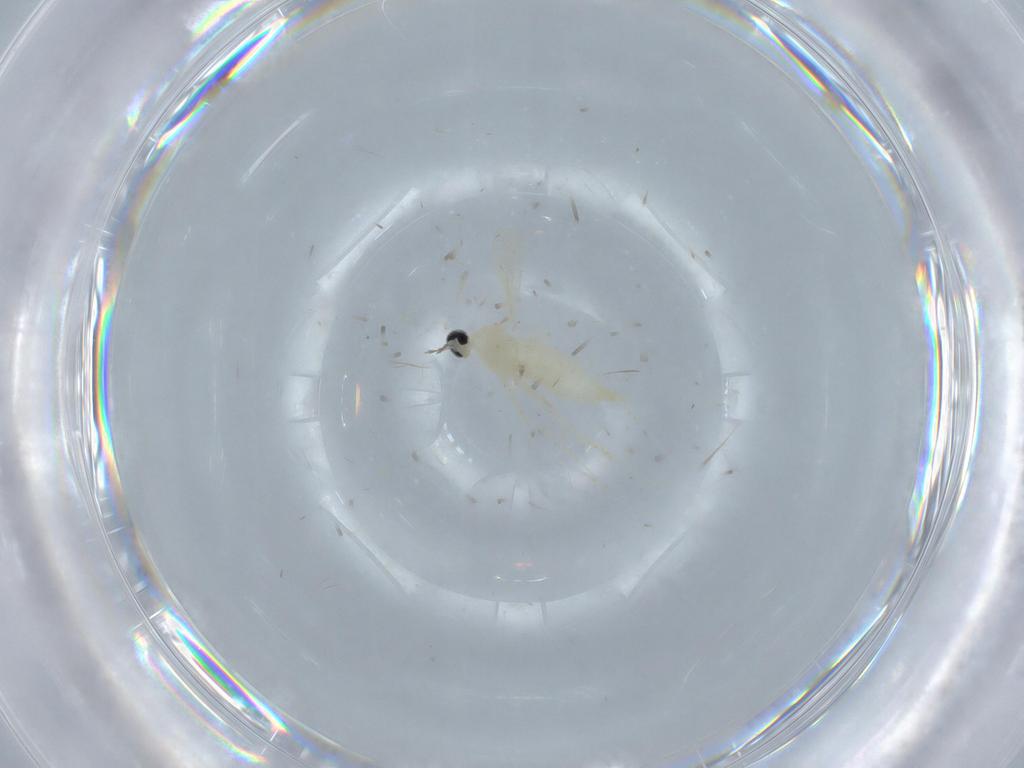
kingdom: Animalia
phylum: Arthropoda
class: Insecta
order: Diptera
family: Cecidomyiidae
